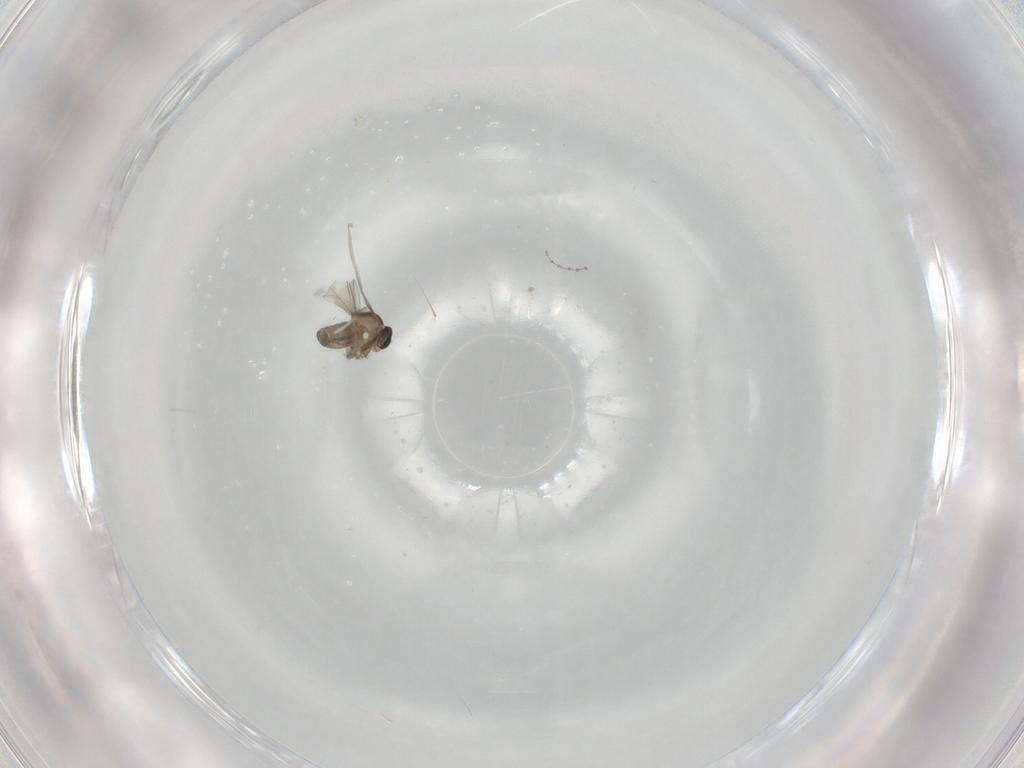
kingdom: Animalia
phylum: Arthropoda
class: Insecta
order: Diptera
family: Cecidomyiidae
